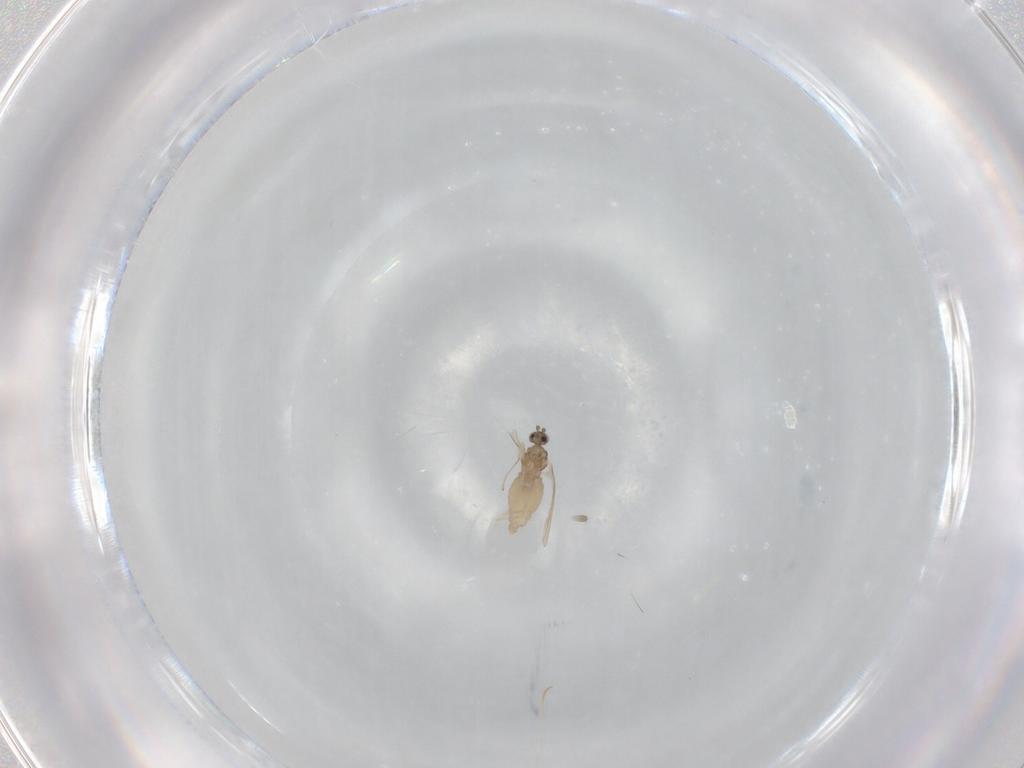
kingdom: Animalia
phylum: Arthropoda
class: Insecta
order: Diptera
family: Cecidomyiidae
